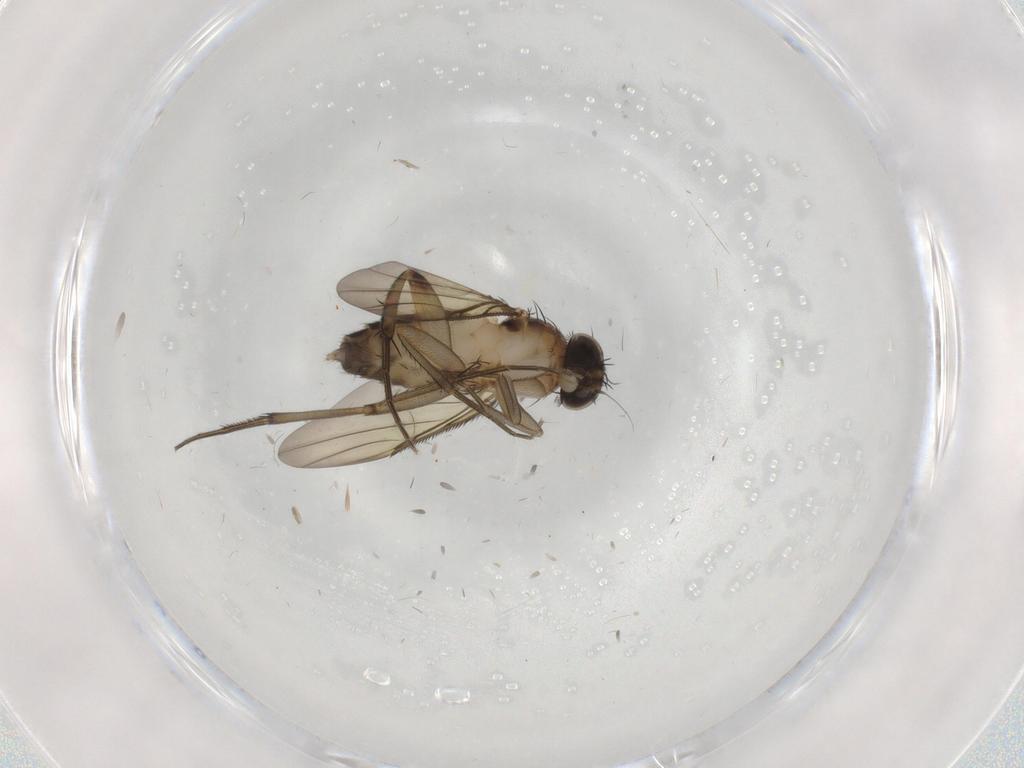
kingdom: Animalia
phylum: Arthropoda
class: Insecta
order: Diptera
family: Phoridae
